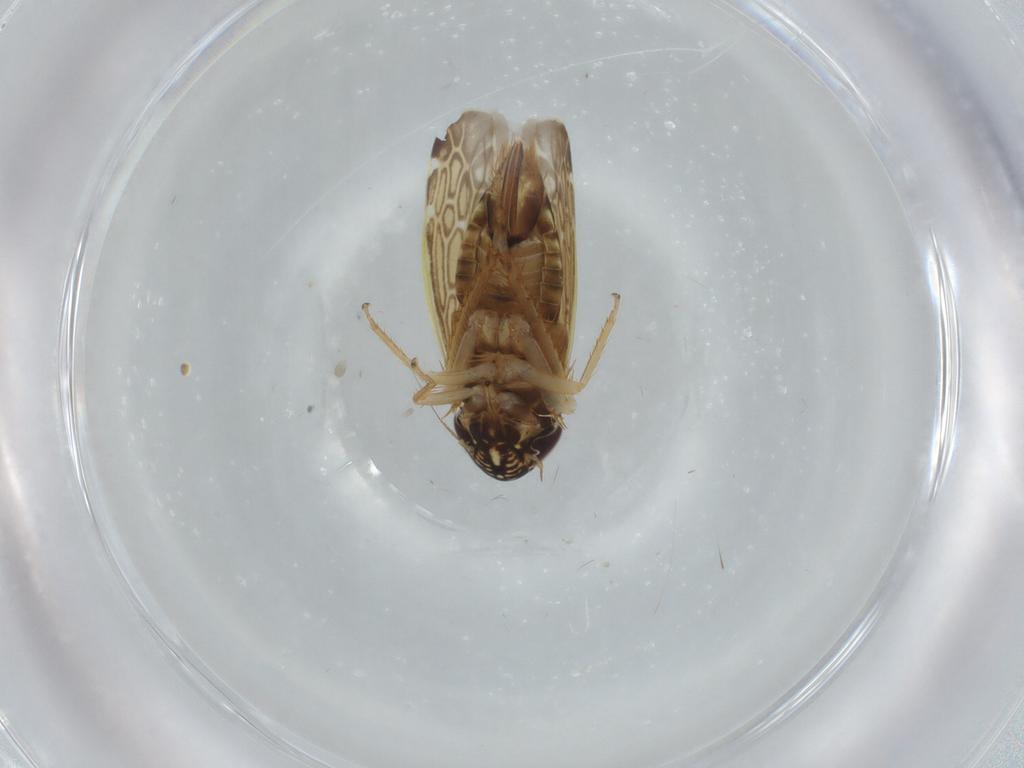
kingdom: Animalia
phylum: Arthropoda
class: Insecta
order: Hemiptera
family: Cicadellidae
